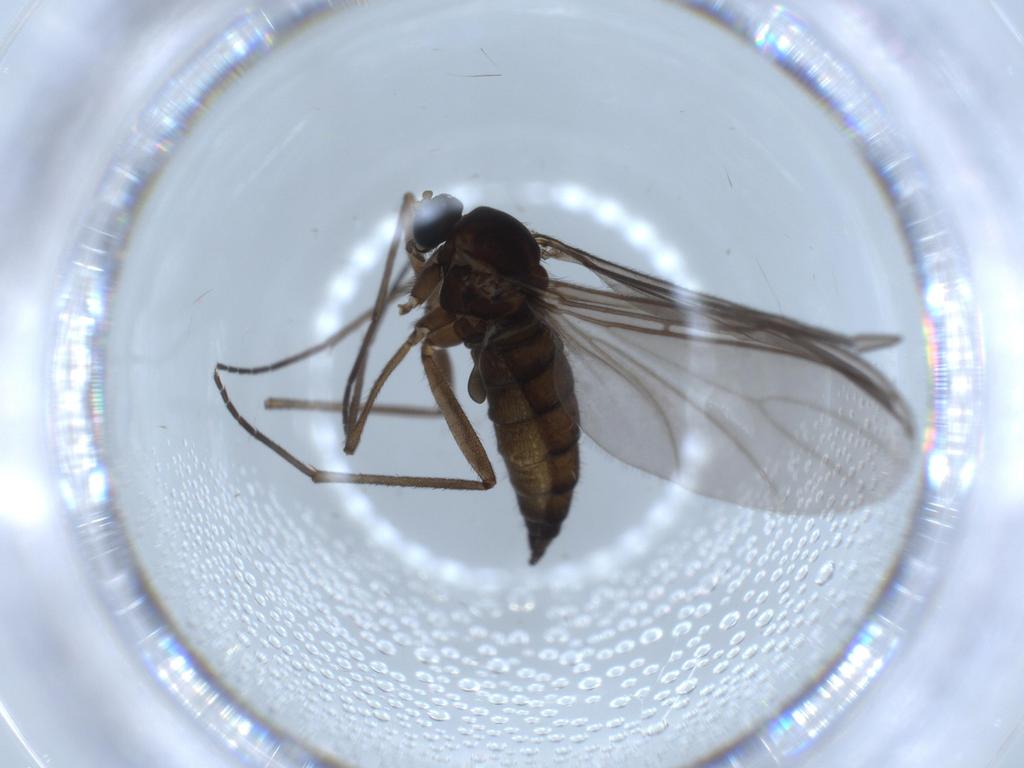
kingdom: Animalia
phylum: Arthropoda
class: Insecta
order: Diptera
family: Sciaridae
